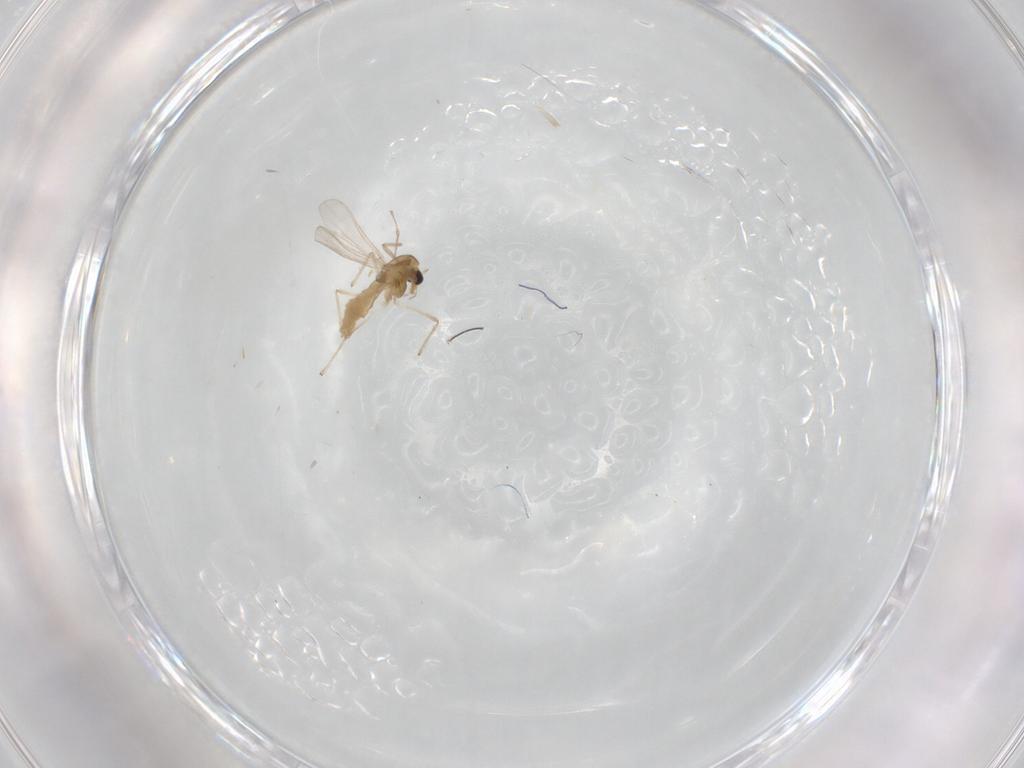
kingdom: Animalia
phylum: Arthropoda
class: Insecta
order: Diptera
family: Chironomidae
